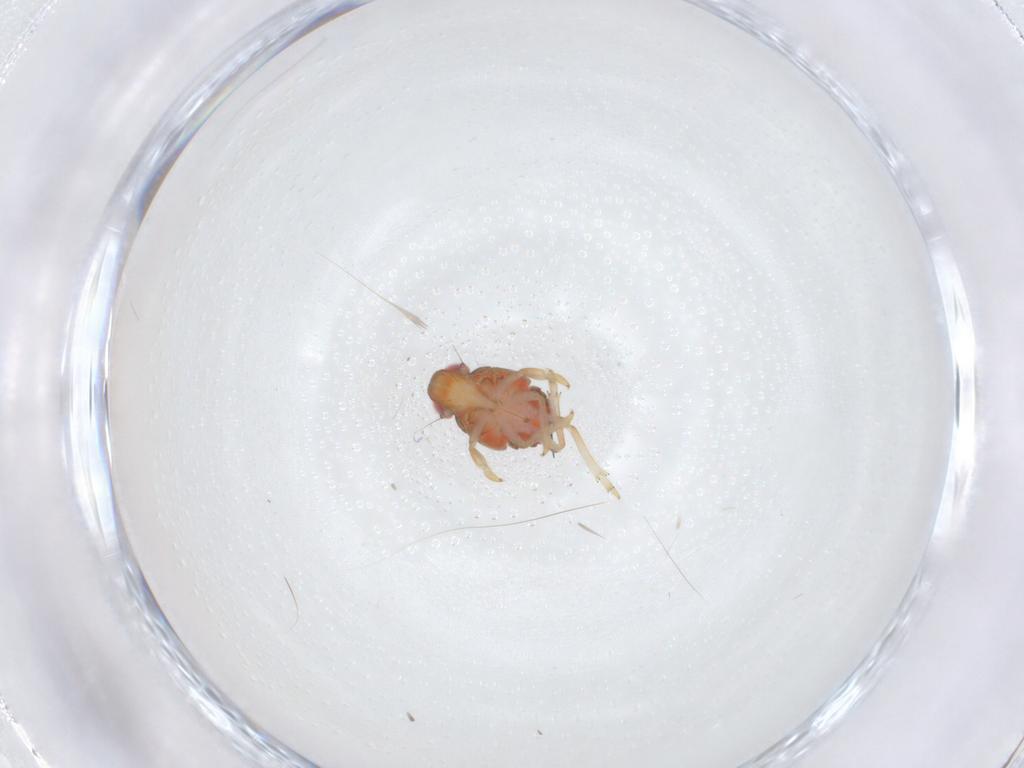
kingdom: Animalia
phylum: Arthropoda
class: Insecta
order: Hemiptera
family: Issidae
